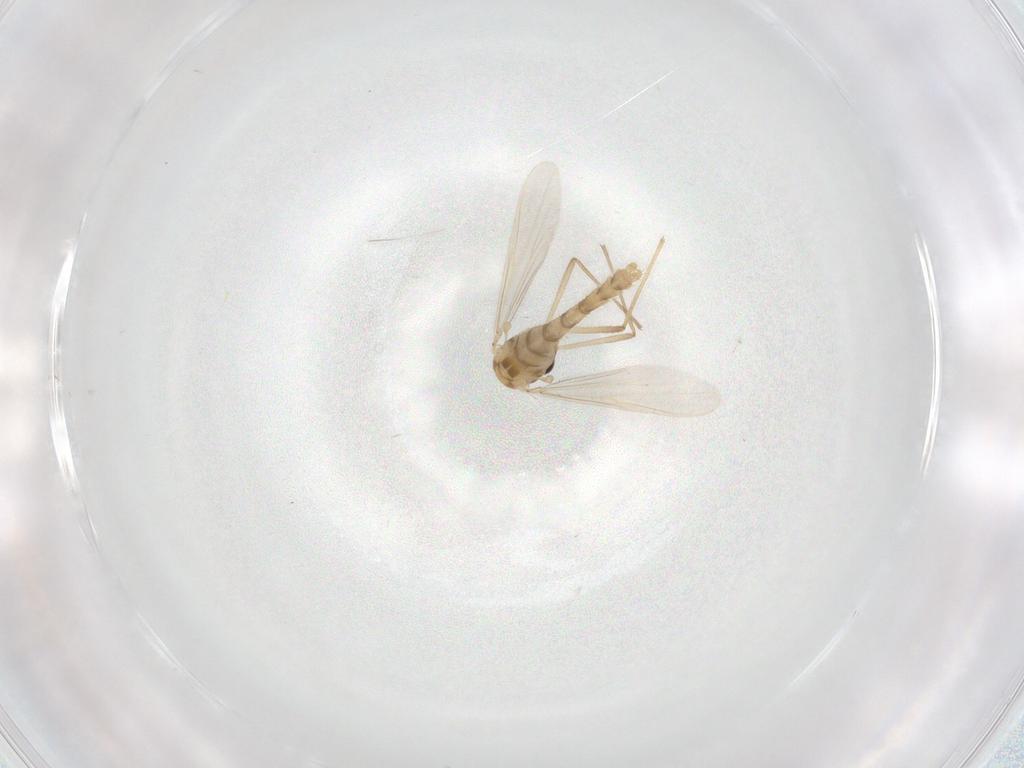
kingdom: Animalia
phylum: Arthropoda
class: Insecta
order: Diptera
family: Chironomidae
